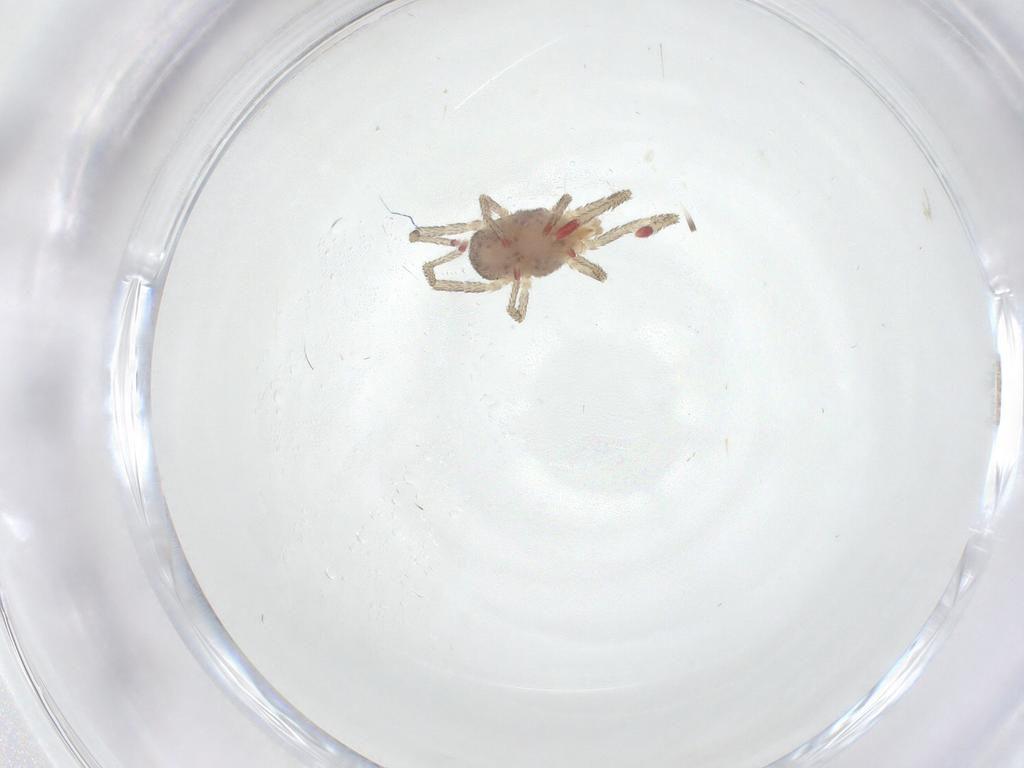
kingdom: Animalia
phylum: Arthropoda
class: Arachnida
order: Trombidiformes
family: Eupodidae
